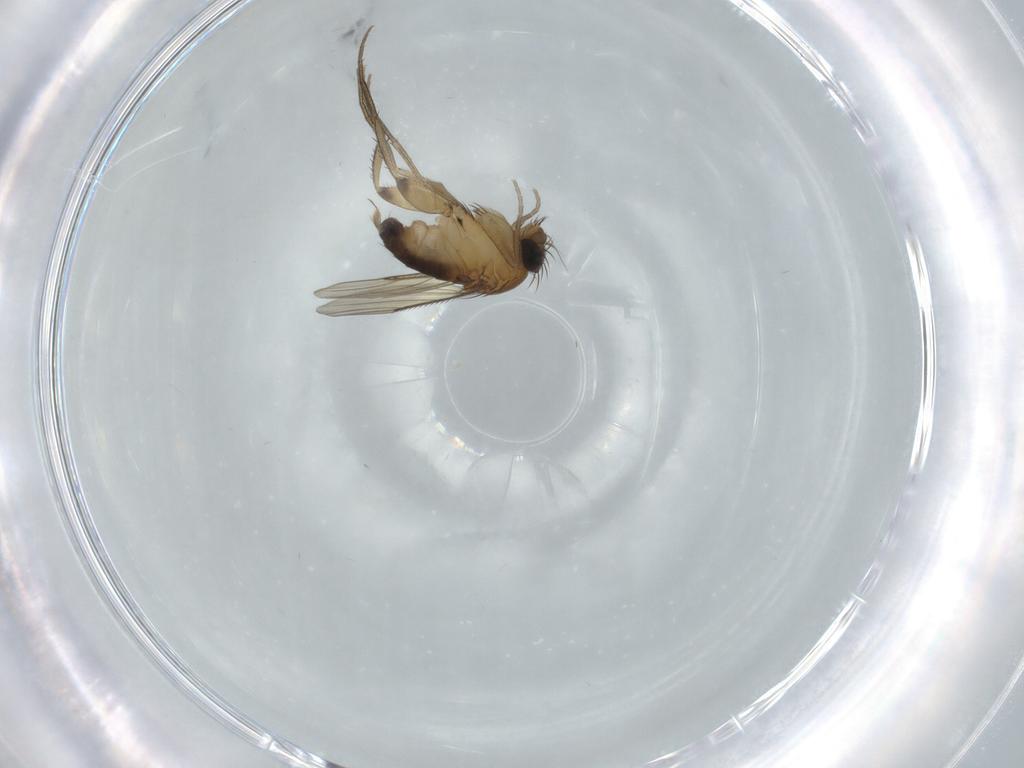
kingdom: Animalia
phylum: Arthropoda
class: Insecta
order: Diptera
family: Phoridae
